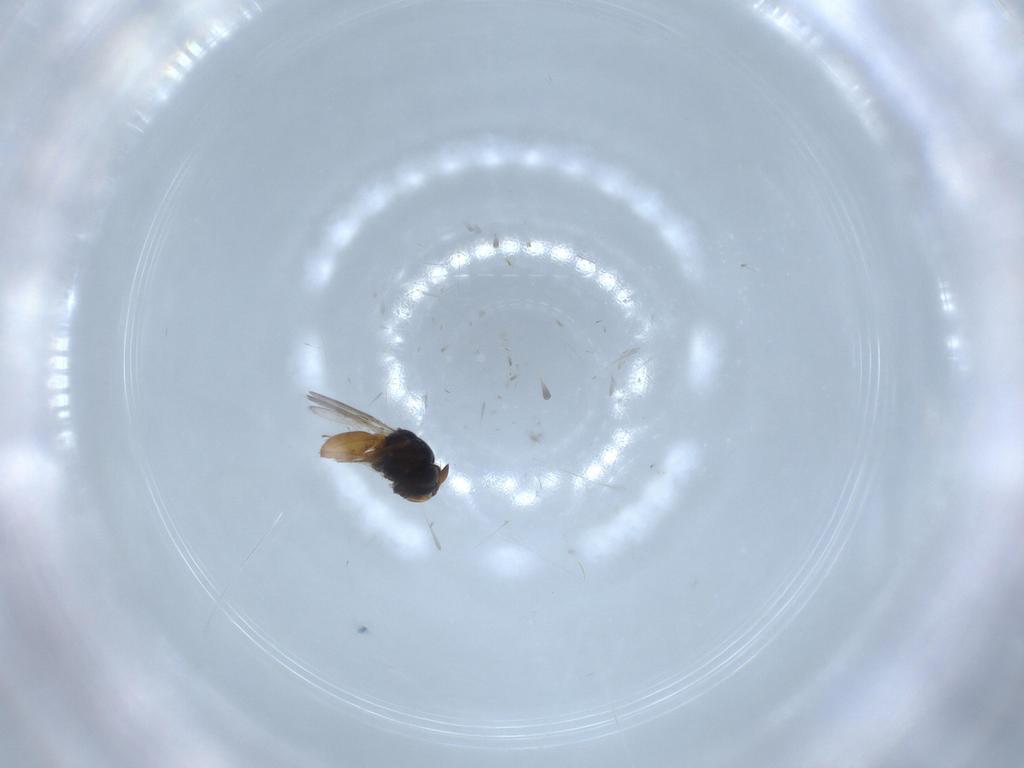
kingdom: Animalia
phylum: Arthropoda
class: Insecta
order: Hymenoptera
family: Scelionidae
